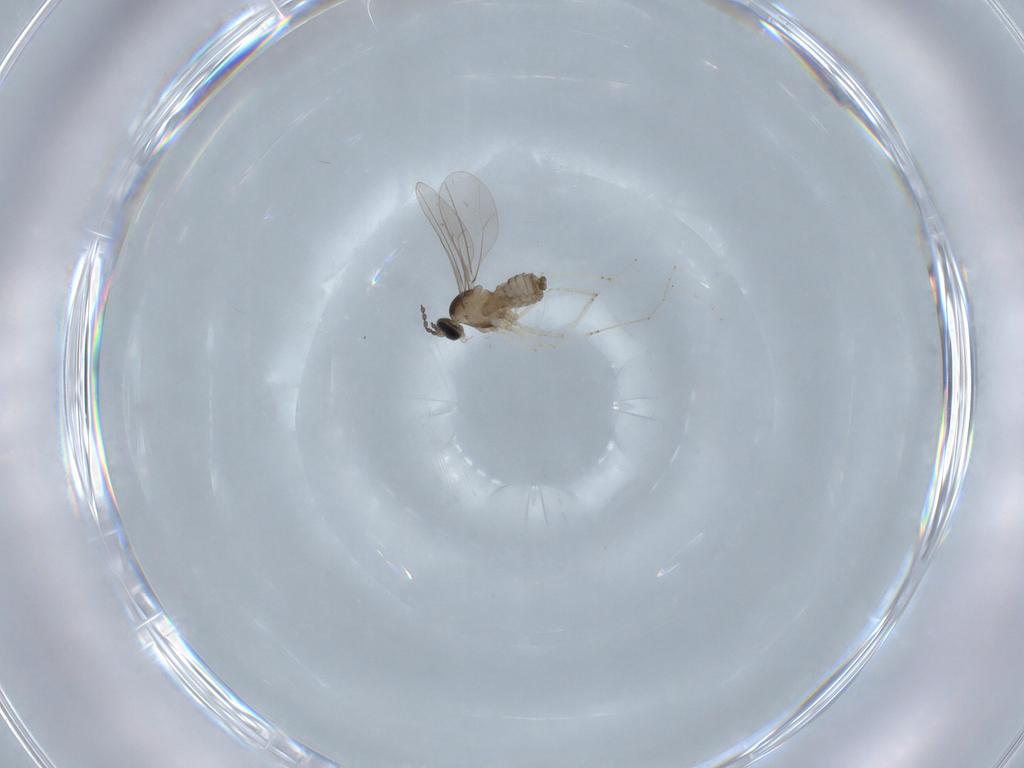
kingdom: Animalia
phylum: Arthropoda
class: Insecta
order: Diptera
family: Cecidomyiidae
